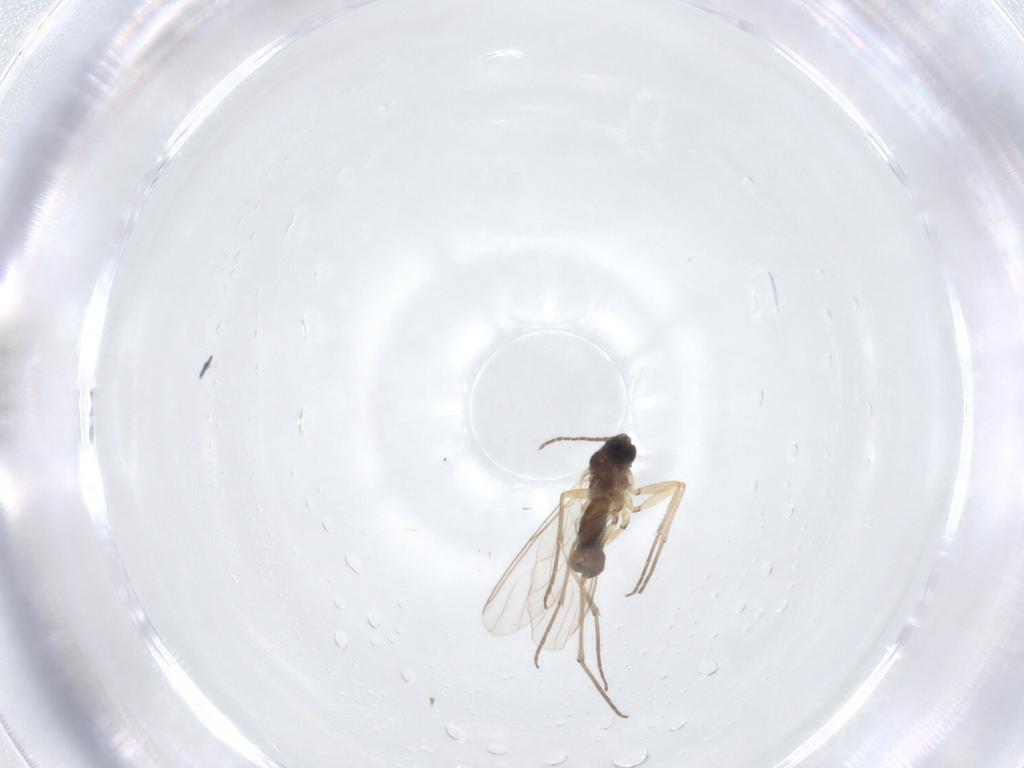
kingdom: Animalia
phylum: Arthropoda
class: Insecta
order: Diptera
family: Chironomidae
